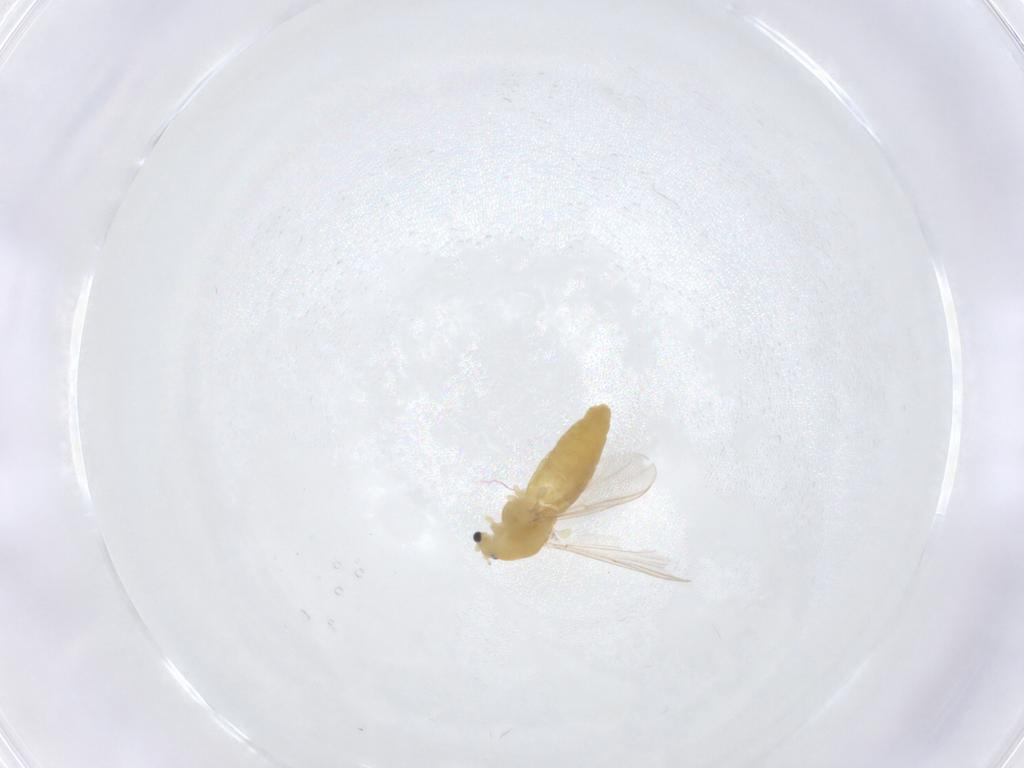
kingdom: Animalia
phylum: Arthropoda
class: Insecta
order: Diptera
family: Chironomidae
